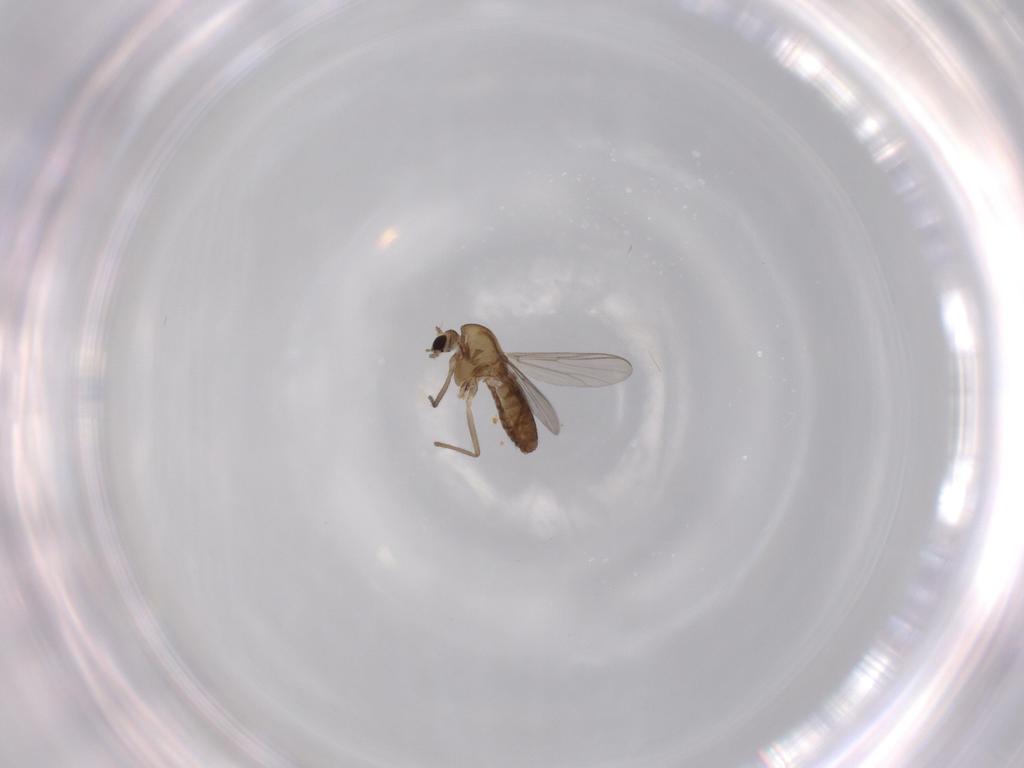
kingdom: Animalia
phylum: Arthropoda
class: Insecta
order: Diptera
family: Chironomidae
